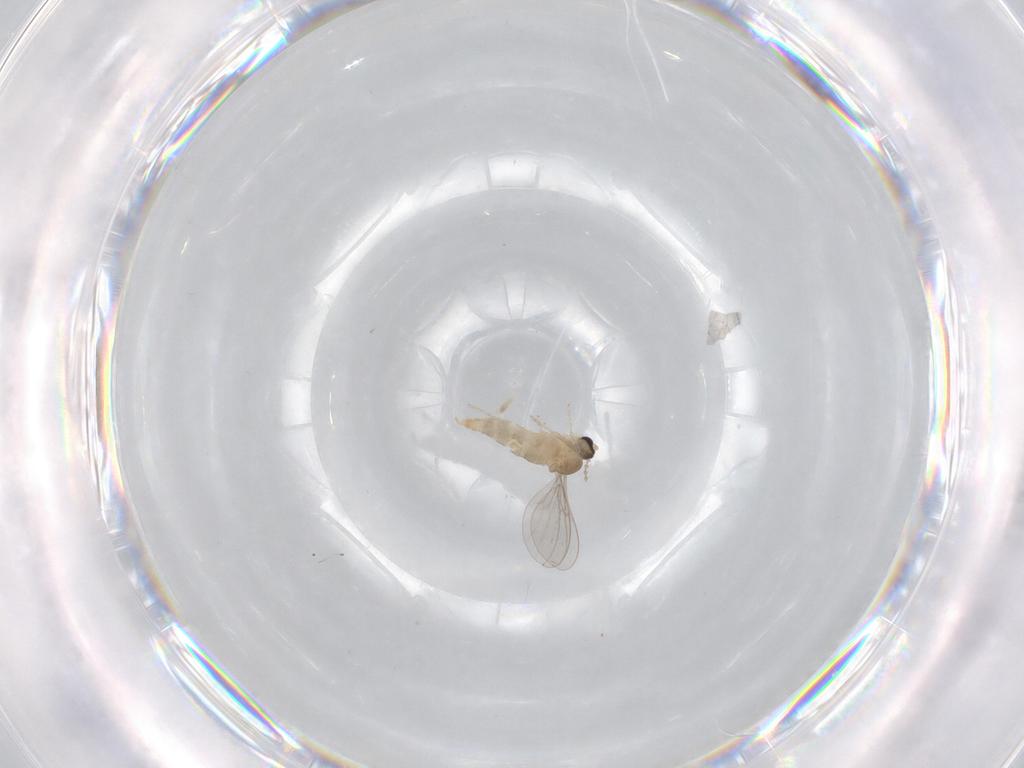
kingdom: Animalia
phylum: Arthropoda
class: Insecta
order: Diptera
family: Cecidomyiidae
